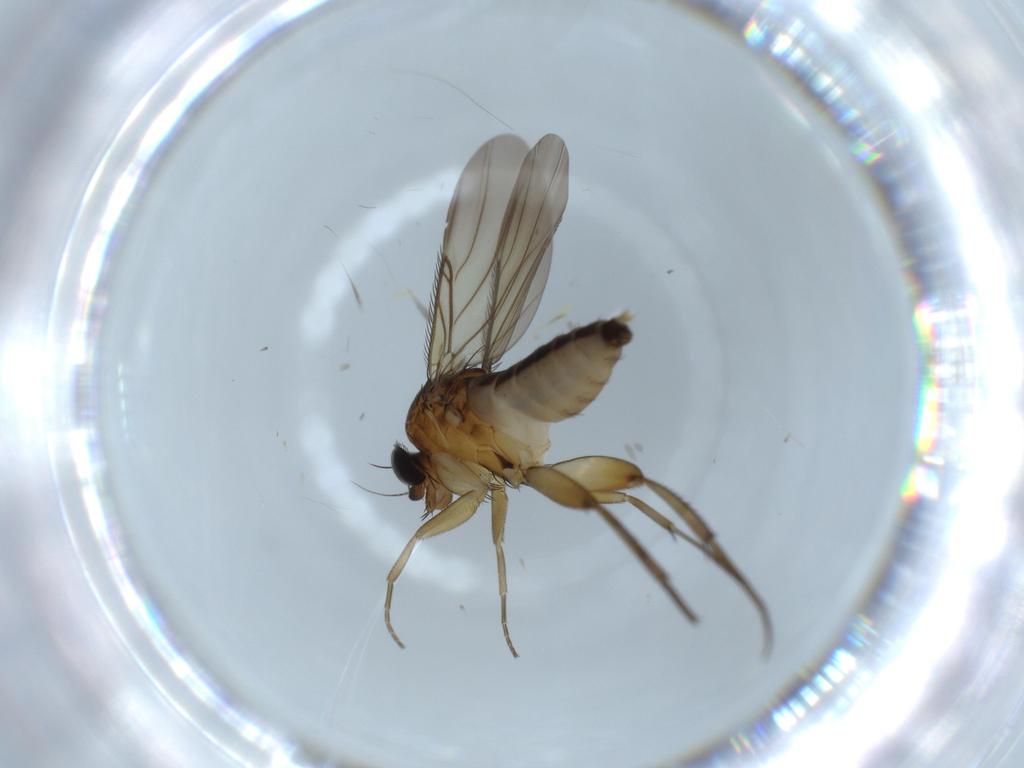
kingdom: Animalia
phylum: Arthropoda
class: Insecta
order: Diptera
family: Phoridae
